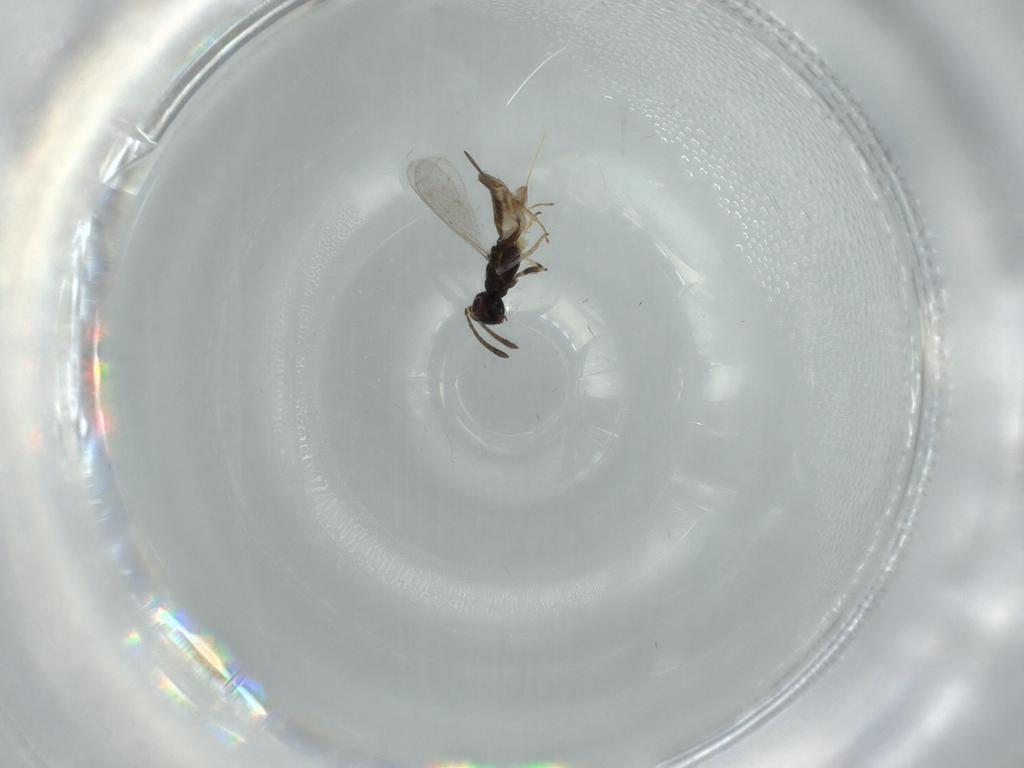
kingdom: Animalia
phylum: Arthropoda
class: Insecta
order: Hymenoptera
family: Eupelmidae
